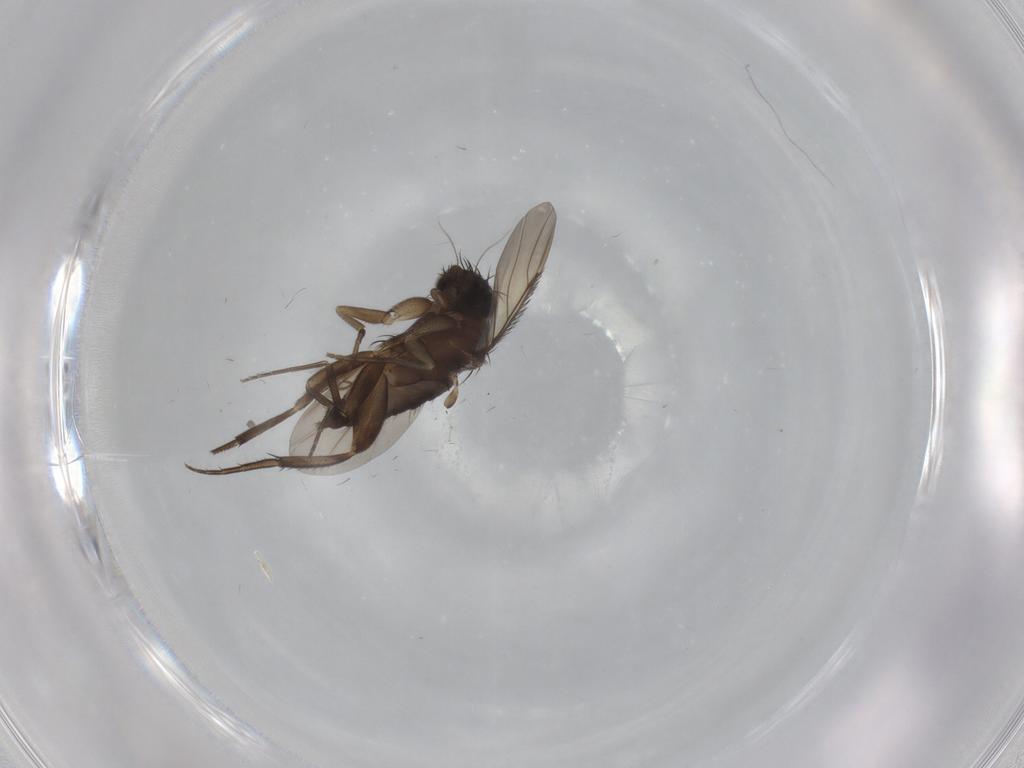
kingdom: Animalia
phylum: Arthropoda
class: Insecta
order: Diptera
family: Phoridae
